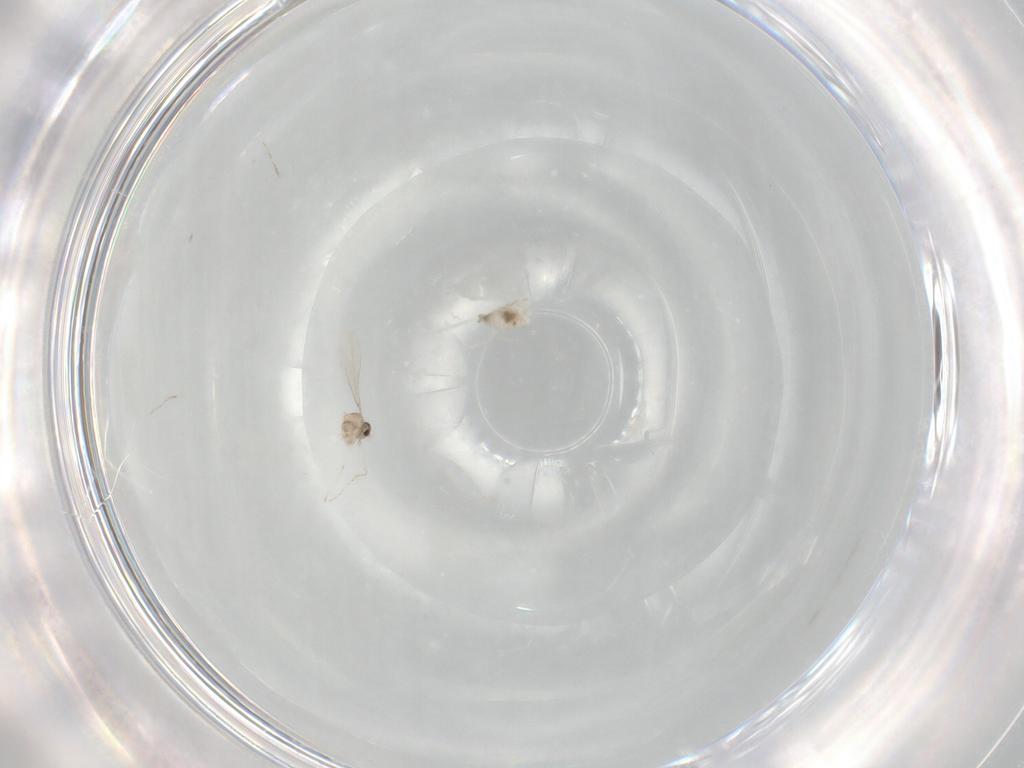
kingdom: Animalia
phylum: Arthropoda
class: Insecta
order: Diptera
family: Cecidomyiidae
